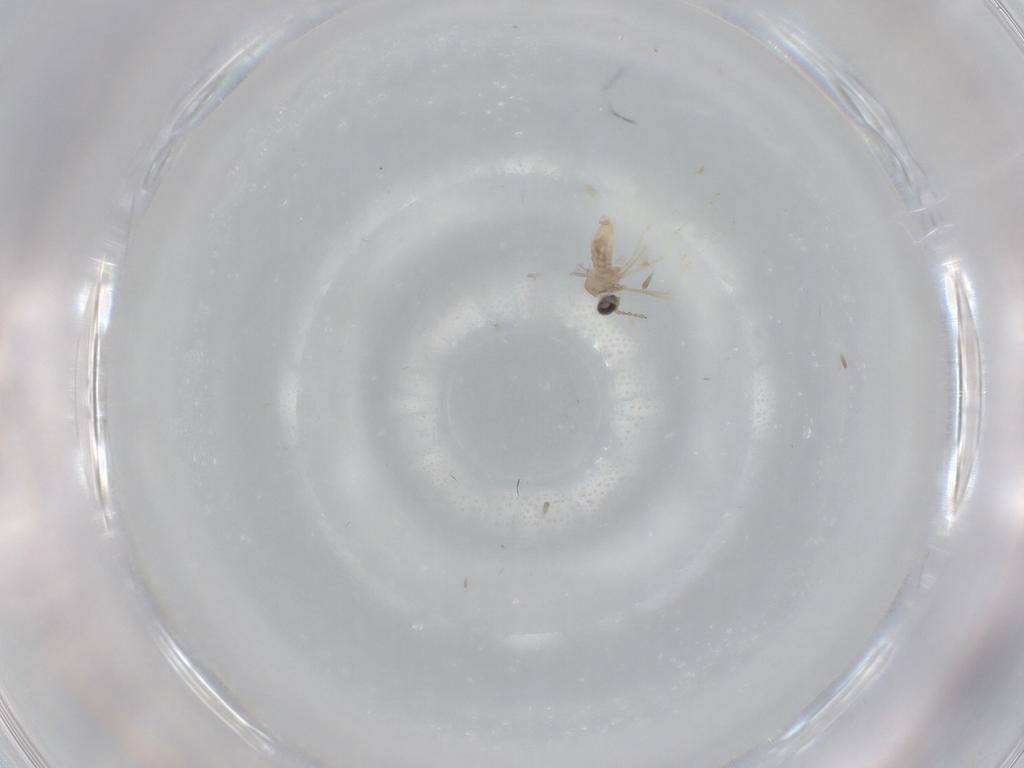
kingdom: Animalia
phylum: Arthropoda
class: Insecta
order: Diptera
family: Cecidomyiidae
